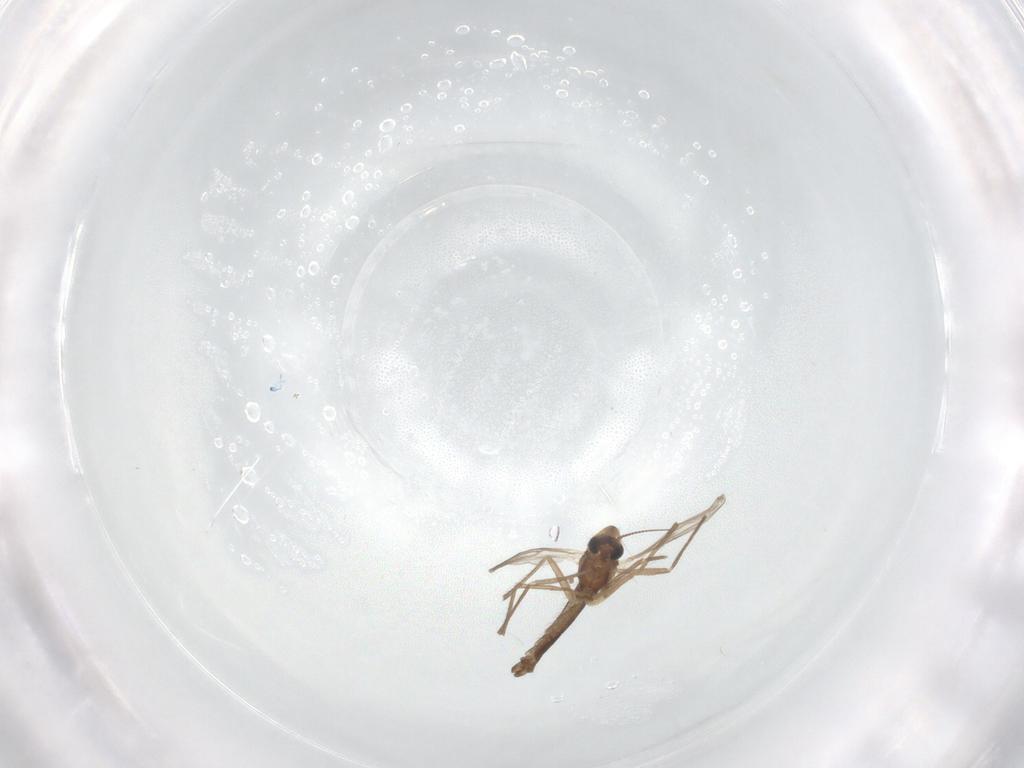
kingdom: Animalia
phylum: Arthropoda
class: Insecta
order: Diptera
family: Chironomidae
